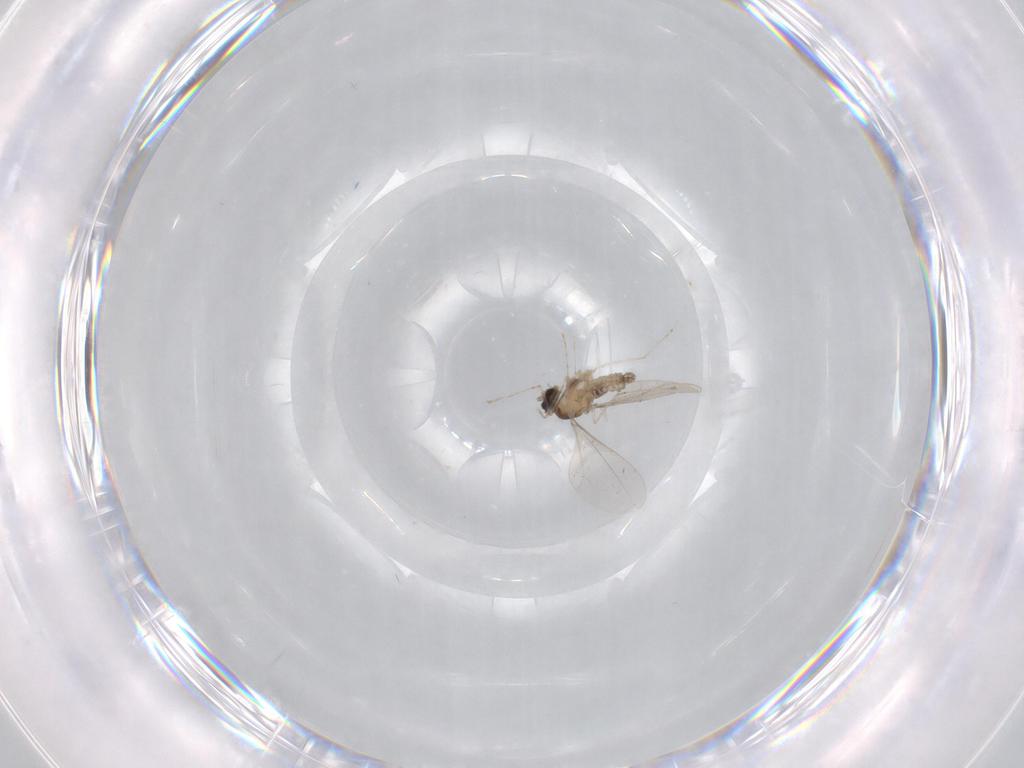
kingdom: Animalia
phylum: Arthropoda
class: Insecta
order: Diptera
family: Cecidomyiidae
